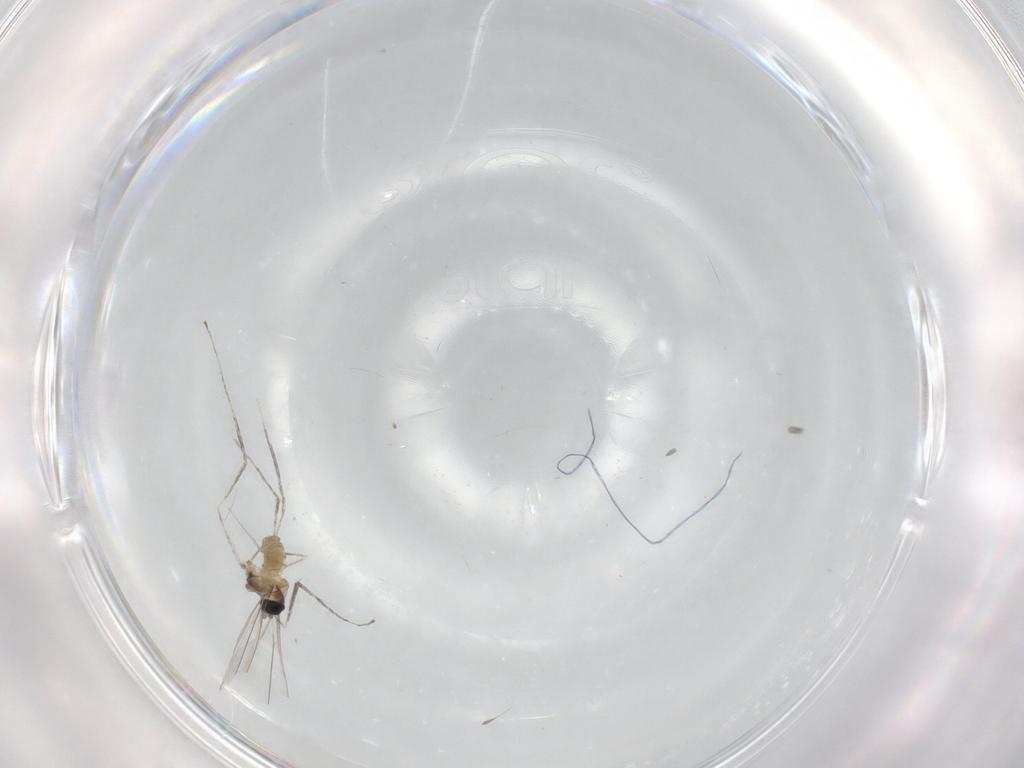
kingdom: Animalia
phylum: Arthropoda
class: Insecta
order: Diptera
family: Cecidomyiidae
